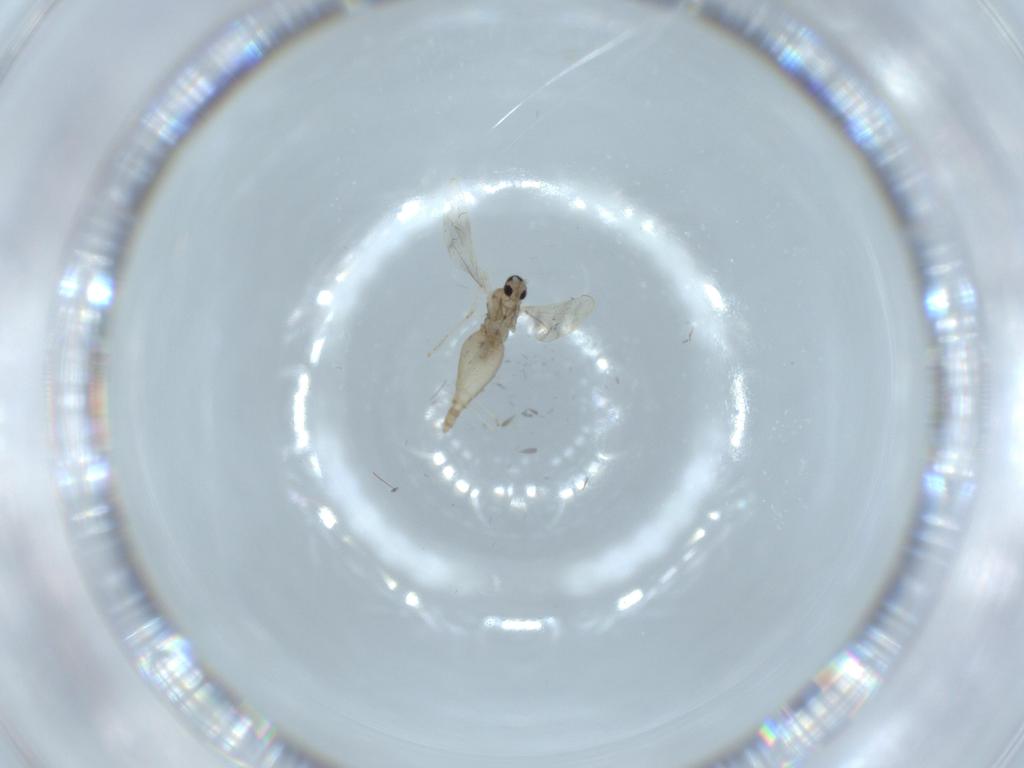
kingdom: Animalia
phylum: Arthropoda
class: Insecta
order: Diptera
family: Cecidomyiidae
